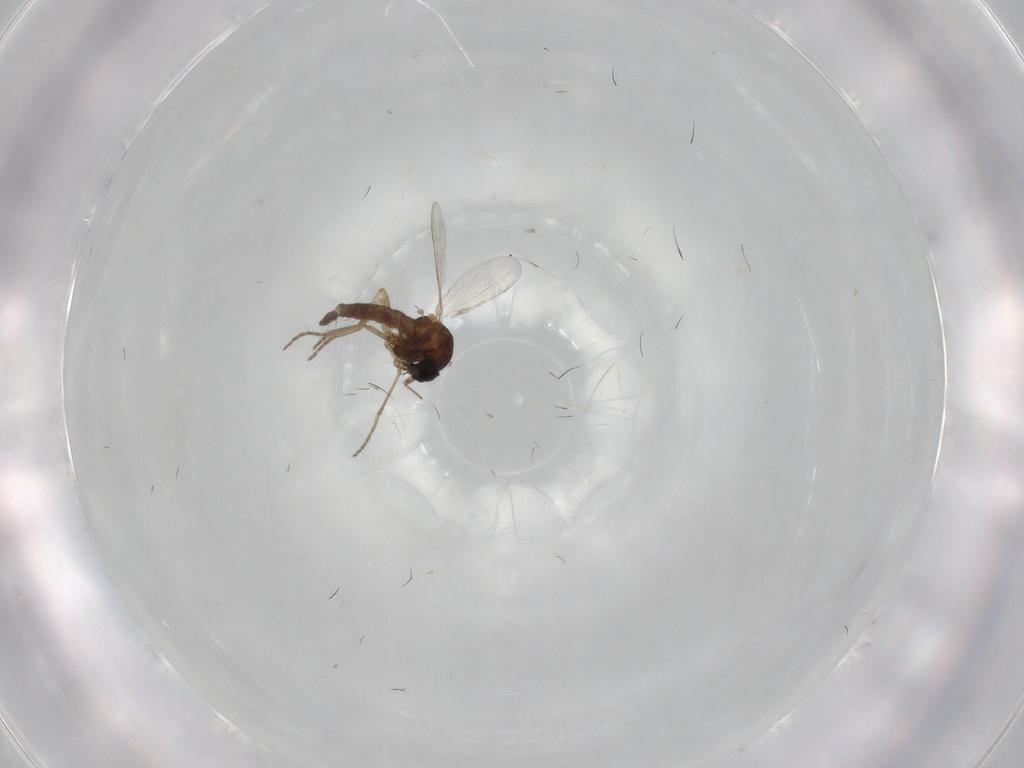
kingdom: Animalia
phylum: Arthropoda
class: Insecta
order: Diptera
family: Ceratopogonidae
